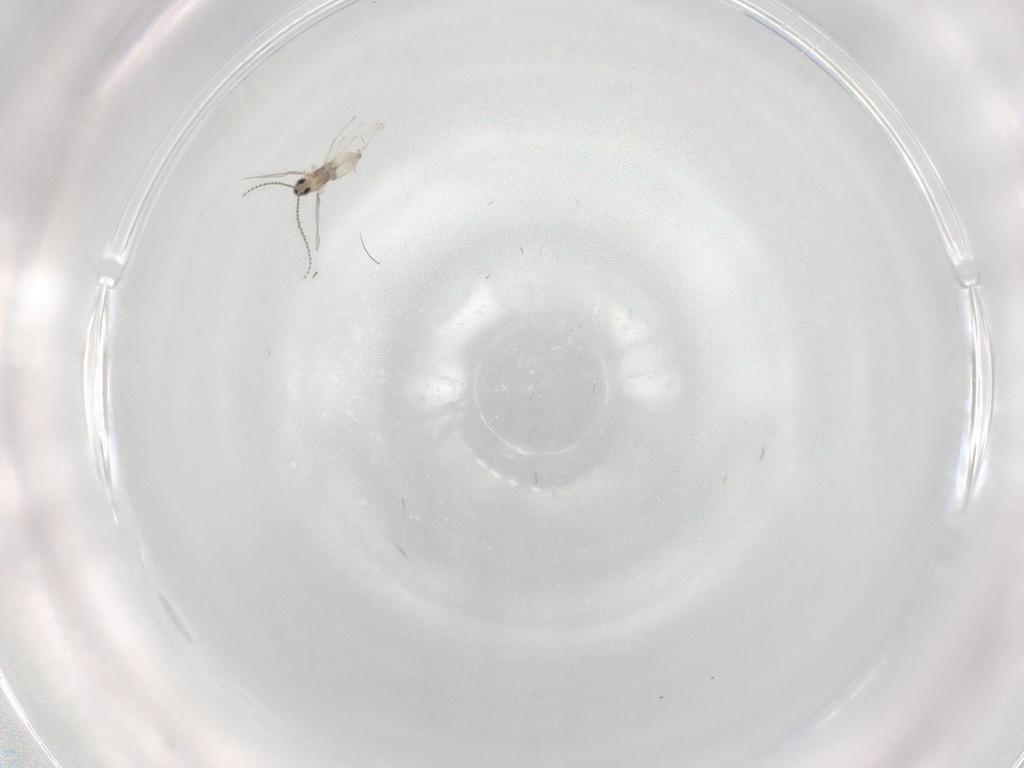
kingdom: Animalia
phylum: Arthropoda
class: Insecta
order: Diptera
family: Cecidomyiidae
